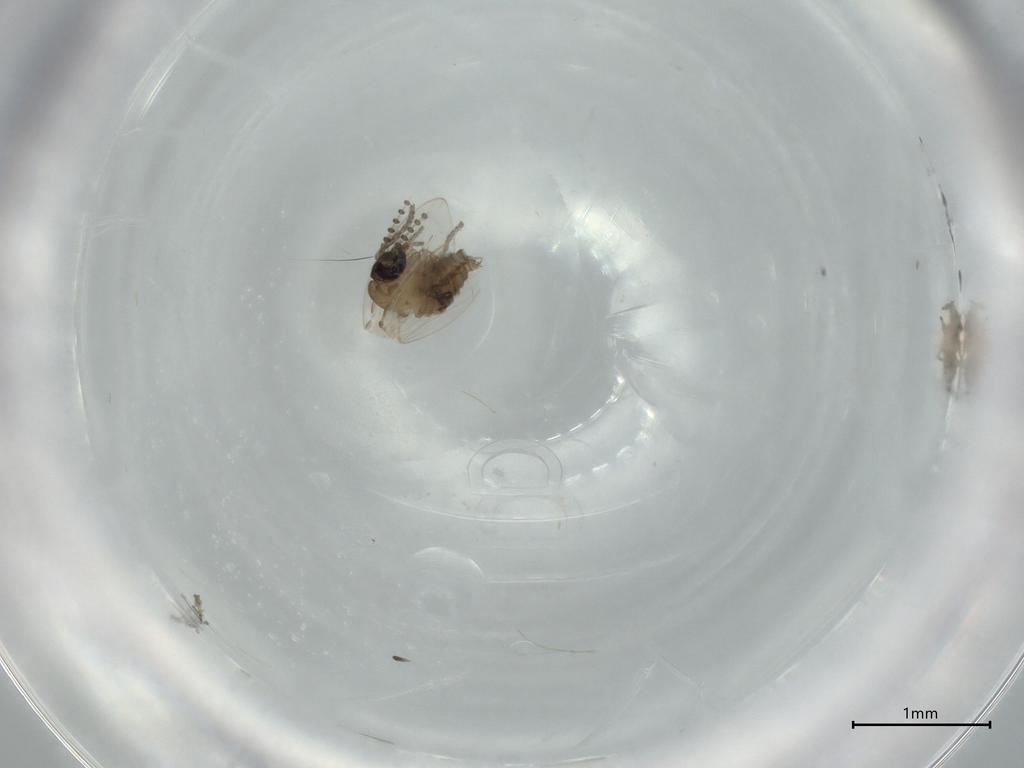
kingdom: Animalia
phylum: Arthropoda
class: Insecta
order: Diptera
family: Psychodidae
